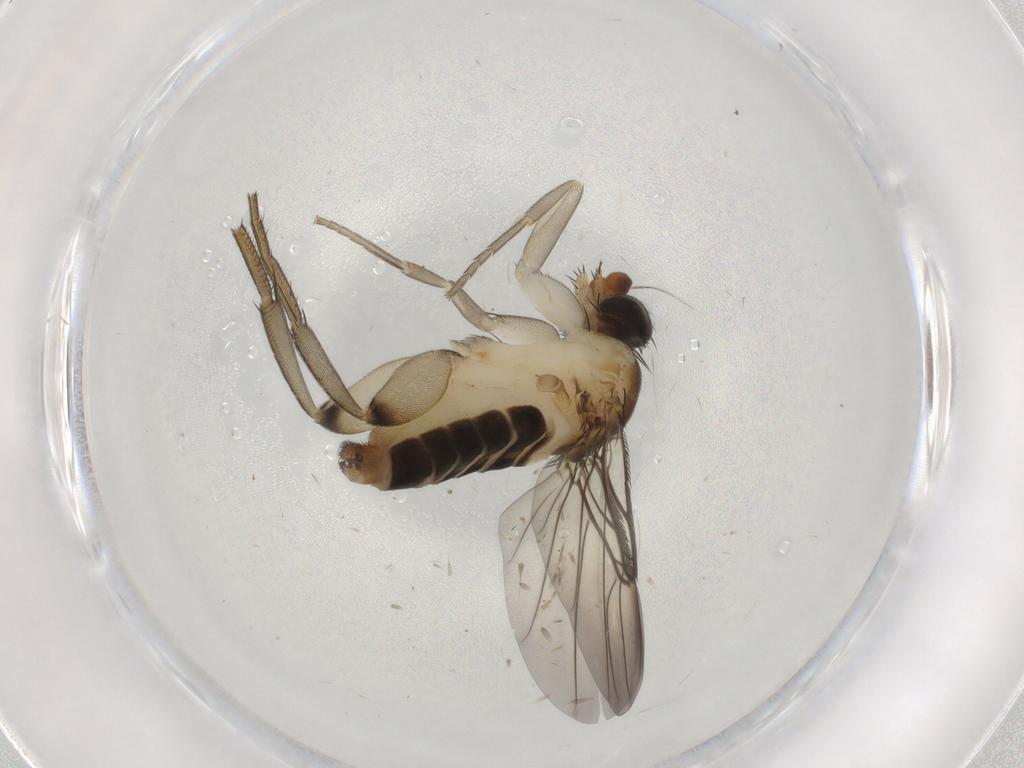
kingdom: Animalia
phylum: Arthropoda
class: Insecta
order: Diptera
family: Phoridae
